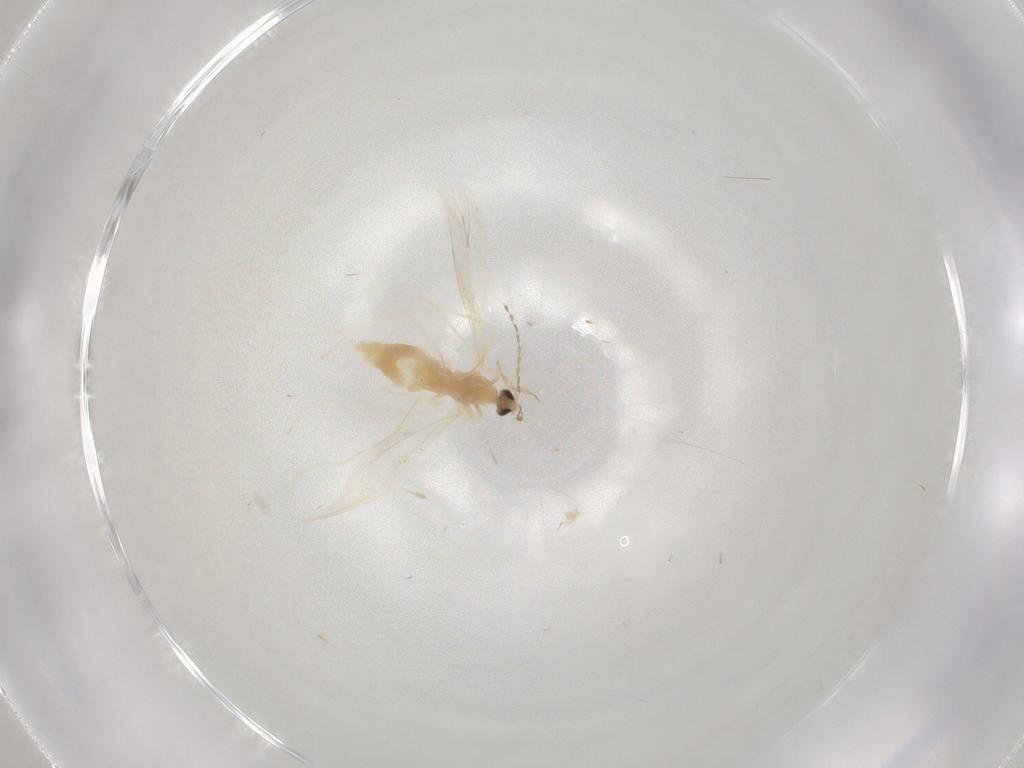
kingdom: Animalia
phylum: Arthropoda
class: Insecta
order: Diptera
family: Cecidomyiidae
